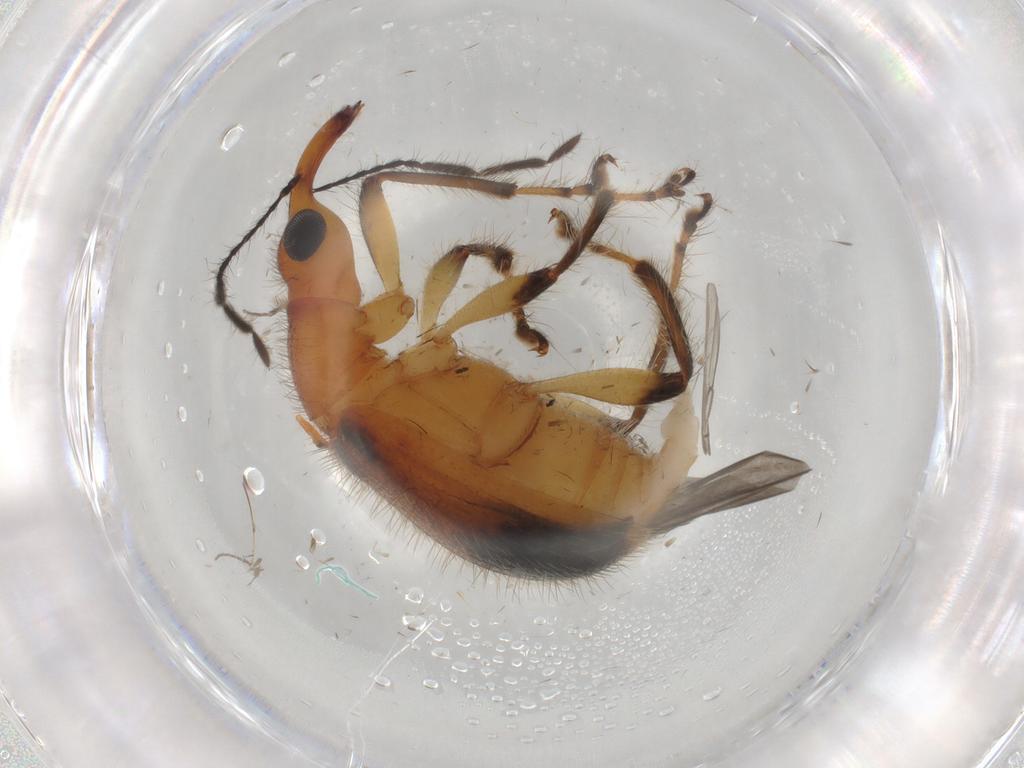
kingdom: Animalia
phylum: Arthropoda
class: Insecta
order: Coleoptera
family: Attelabidae
